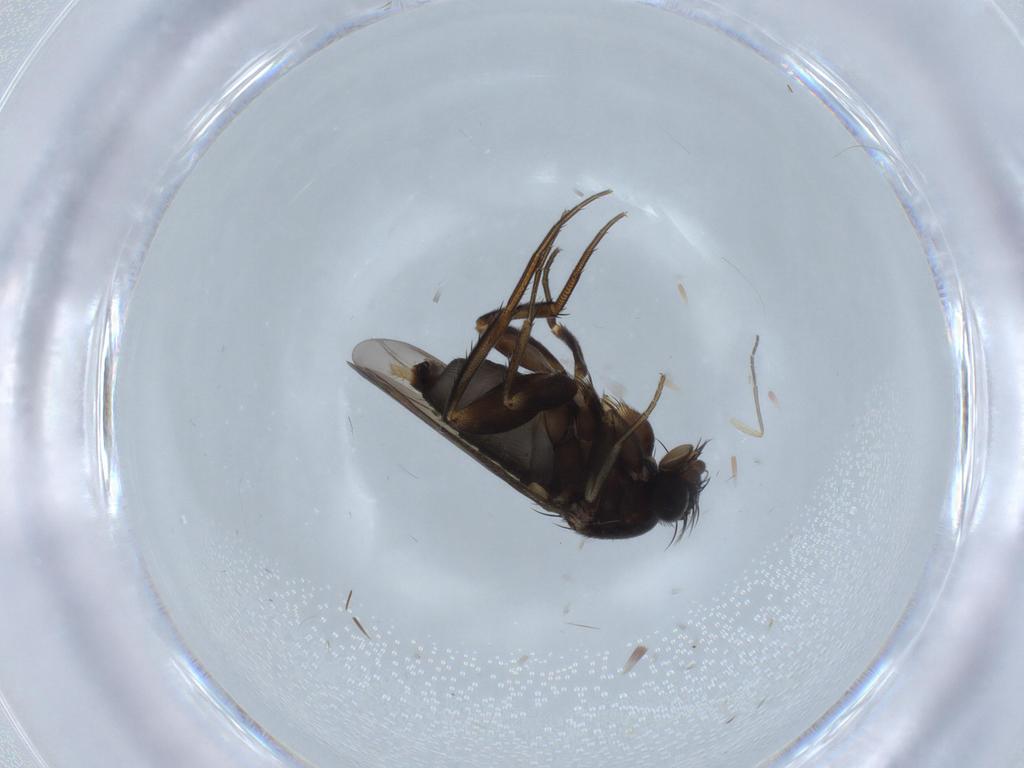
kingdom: Animalia
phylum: Arthropoda
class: Insecta
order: Diptera
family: Phoridae
